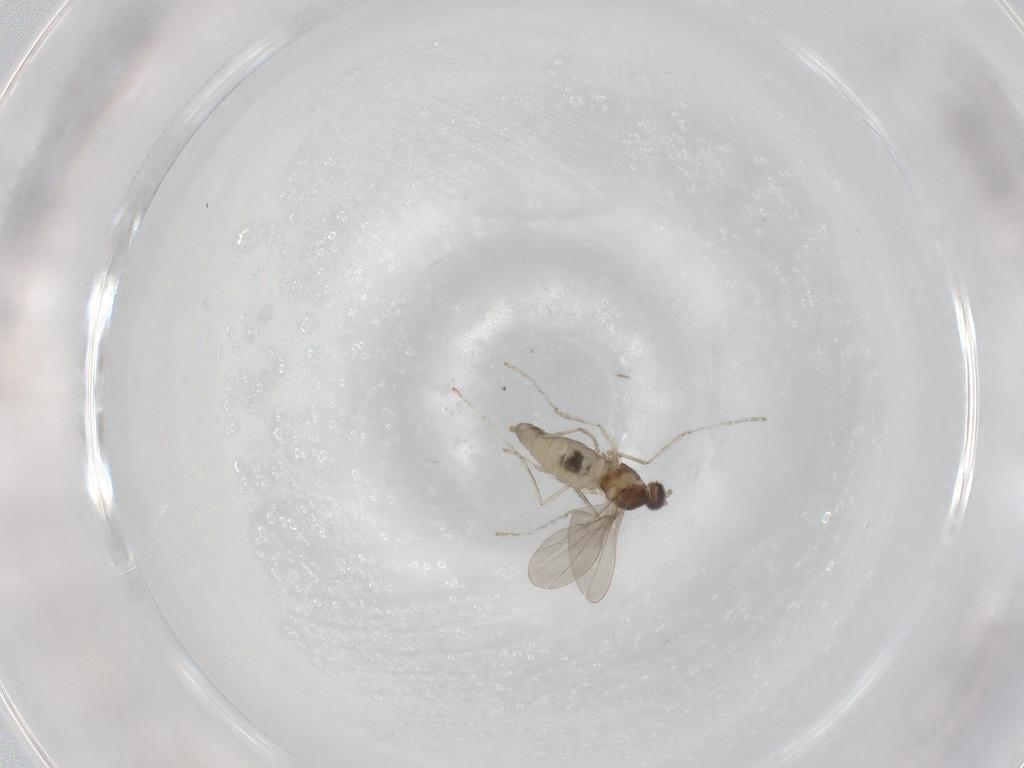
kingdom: Animalia
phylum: Arthropoda
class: Insecta
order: Diptera
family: Cecidomyiidae
